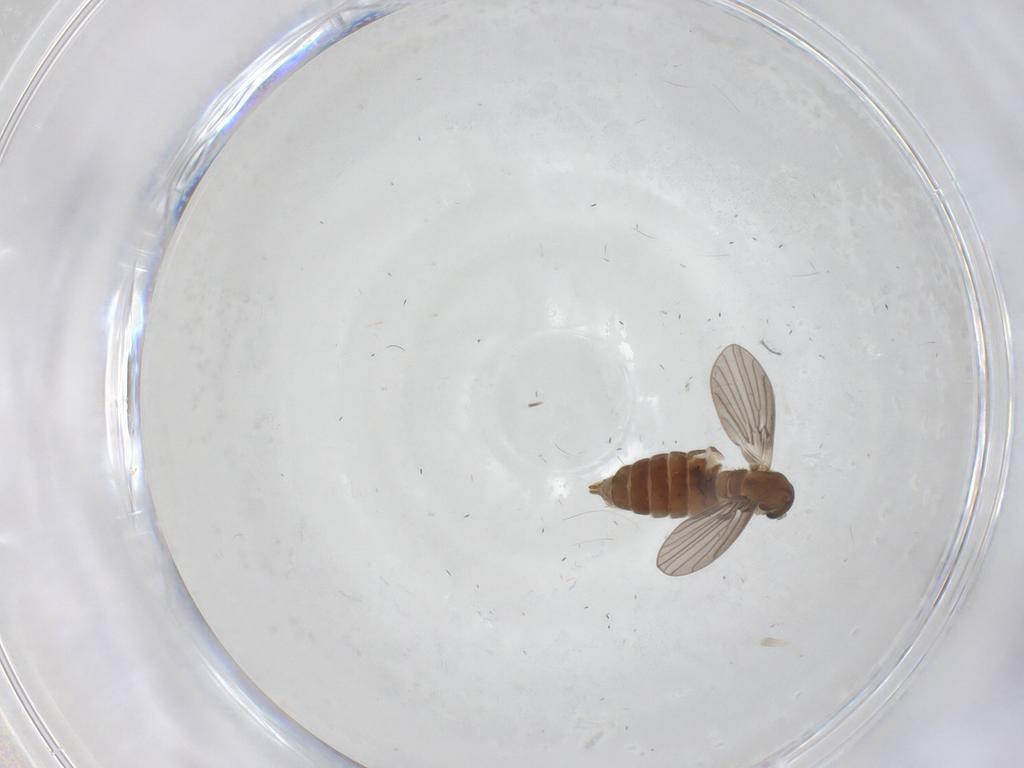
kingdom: Animalia
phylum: Arthropoda
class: Insecta
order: Diptera
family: Psychodidae
